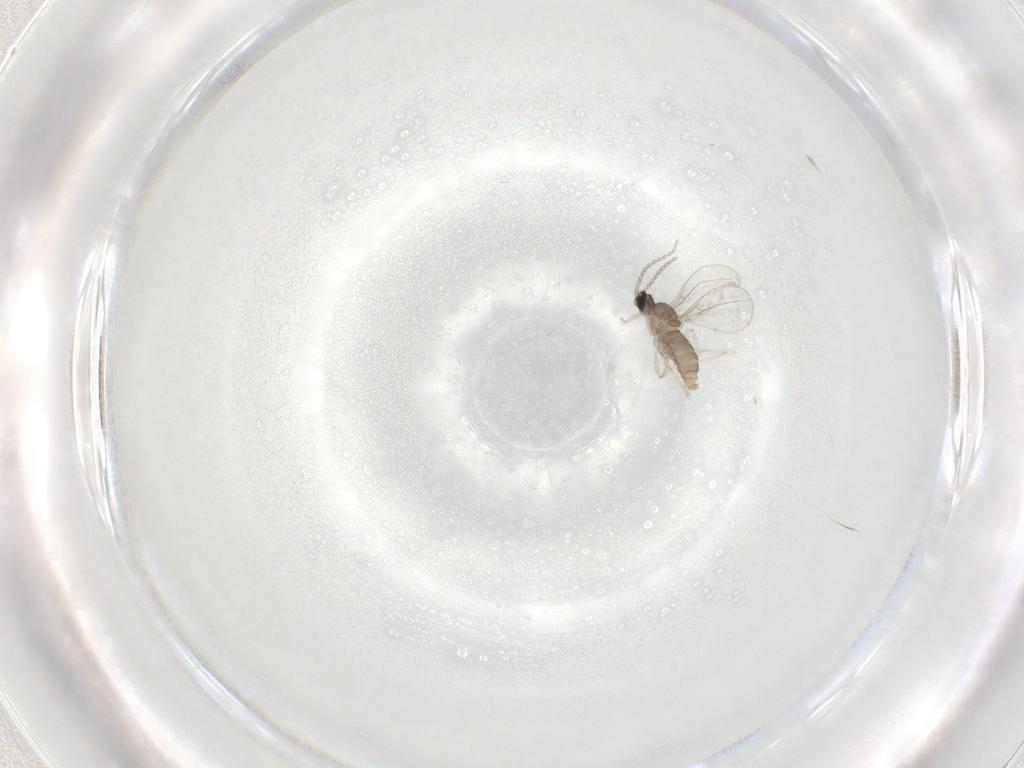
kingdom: Animalia
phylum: Arthropoda
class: Insecta
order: Diptera
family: Cecidomyiidae
